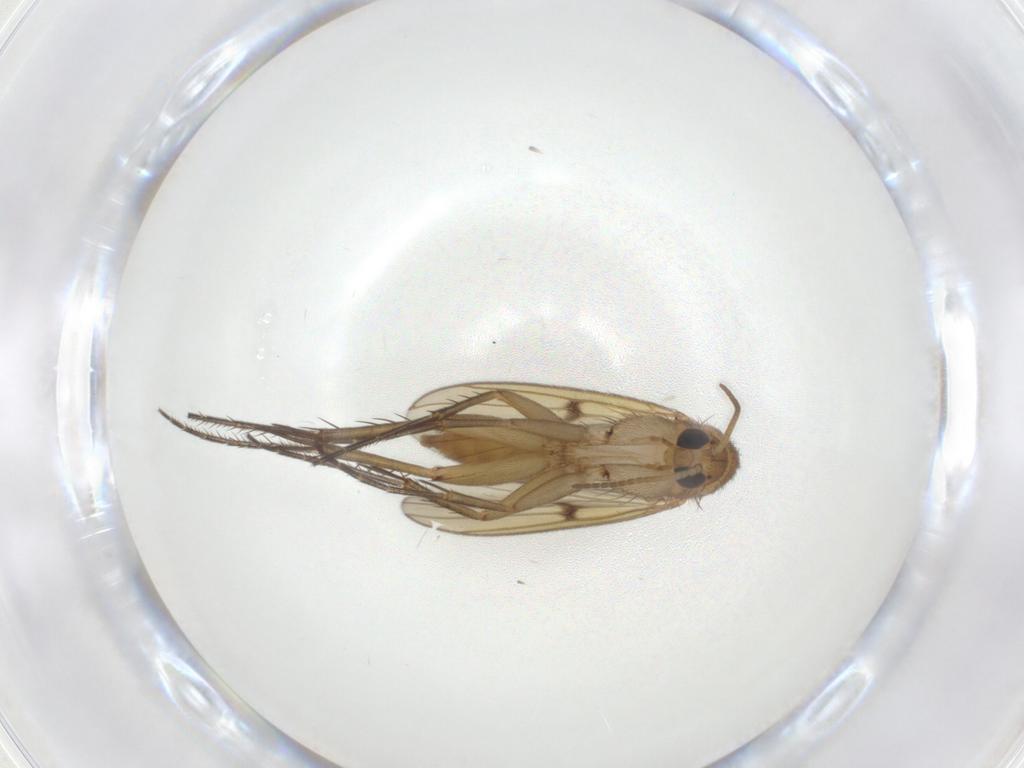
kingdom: Animalia
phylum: Arthropoda
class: Insecta
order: Diptera
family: Mycetophilidae
